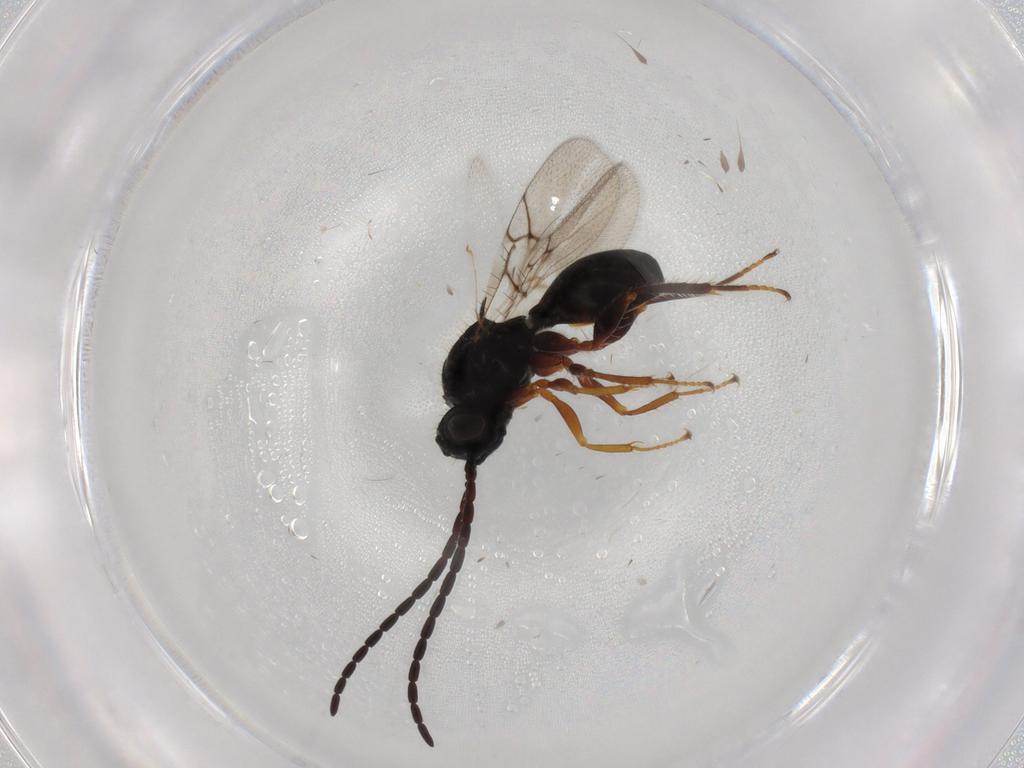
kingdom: Animalia
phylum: Arthropoda
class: Insecta
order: Hymenoptera
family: Figitidae
